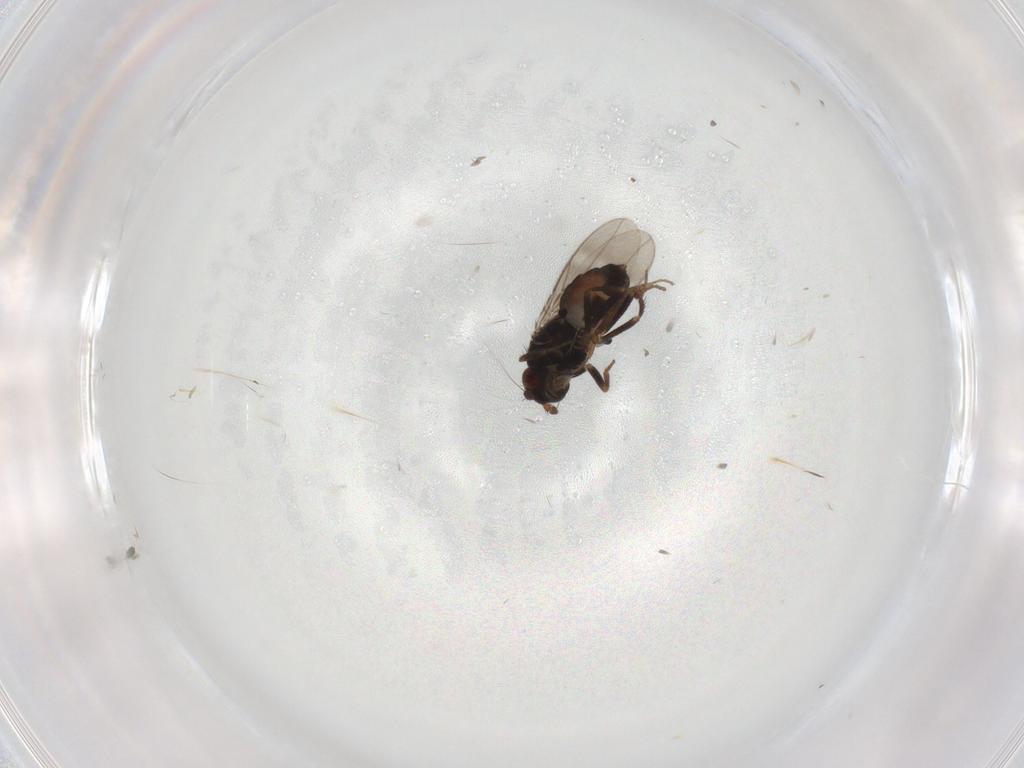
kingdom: Animalia
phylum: Arthropoda
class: Insecta
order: Diptera
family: Sphaeroceridae
